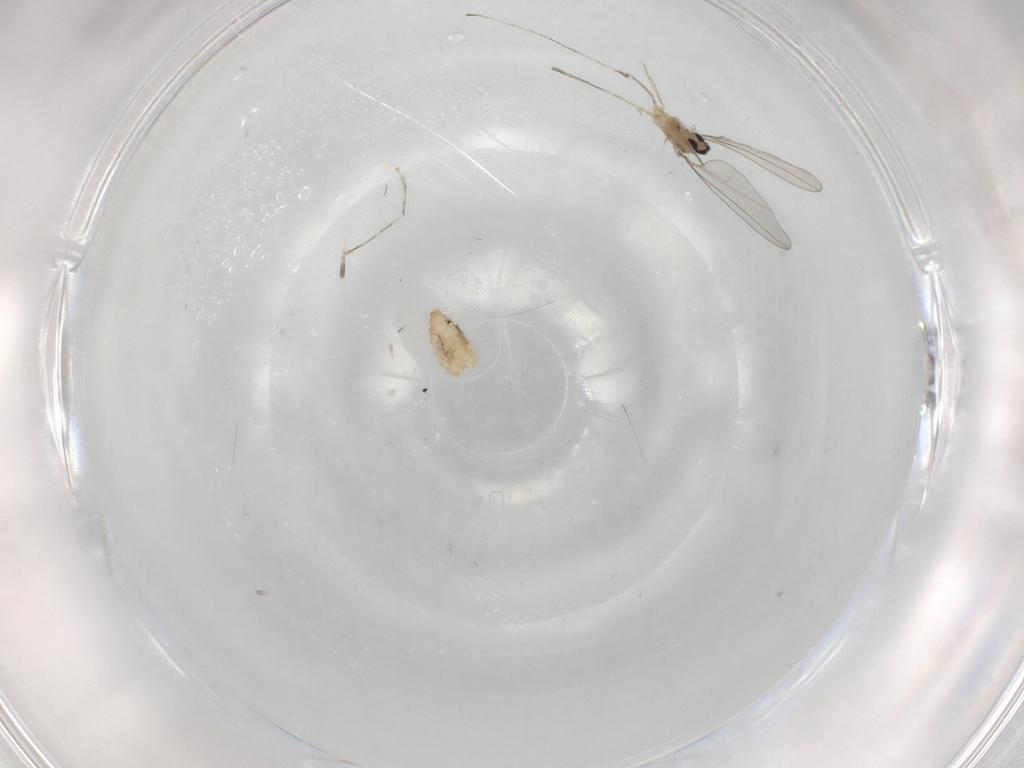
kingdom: Animalia
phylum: Arthropoda
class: Insecta
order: Diptera
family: Cecidomyiidae
